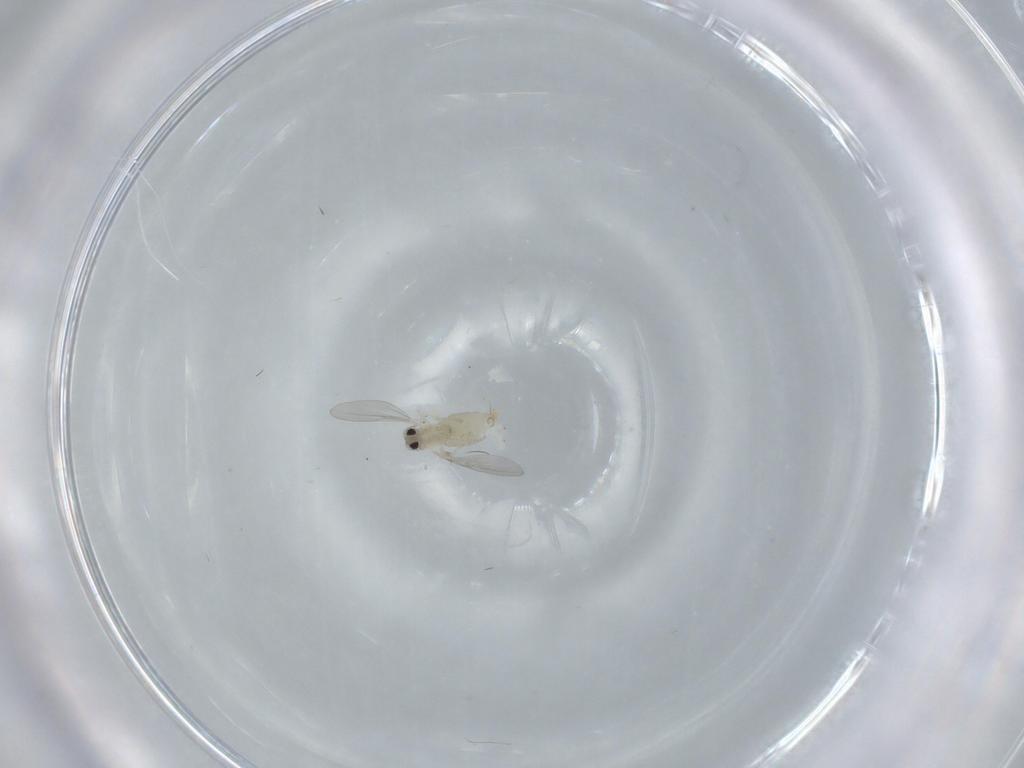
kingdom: Animalia
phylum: Arthropoda
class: Insecta
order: Diptera
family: Cecidomyiidae
